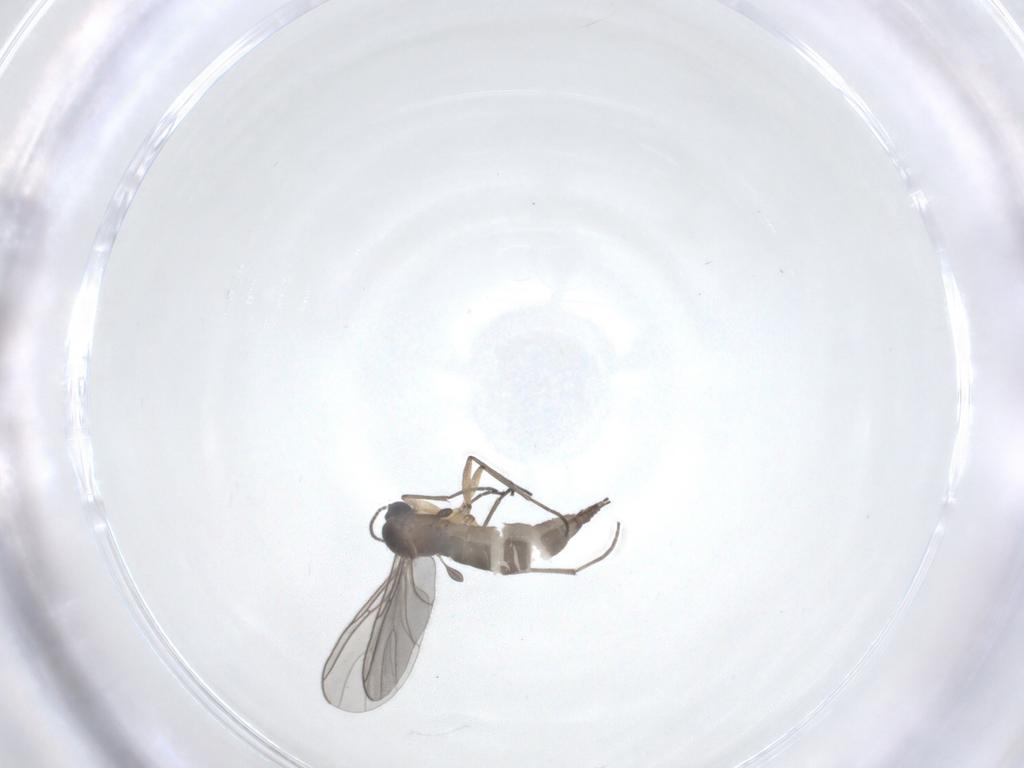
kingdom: Animalia
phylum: Arthropoda
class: Insecta
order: Diptera
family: Sciaridae
